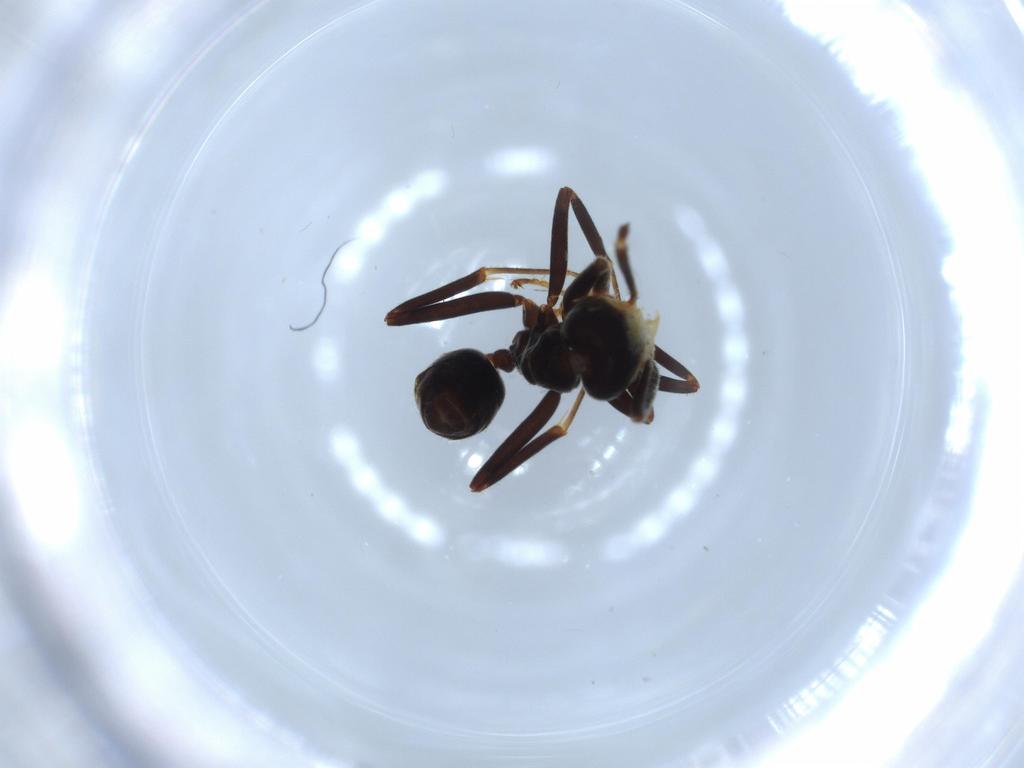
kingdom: Animalia
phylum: Arthropoda
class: Insecta
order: Hymenoptera
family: Formicidae
